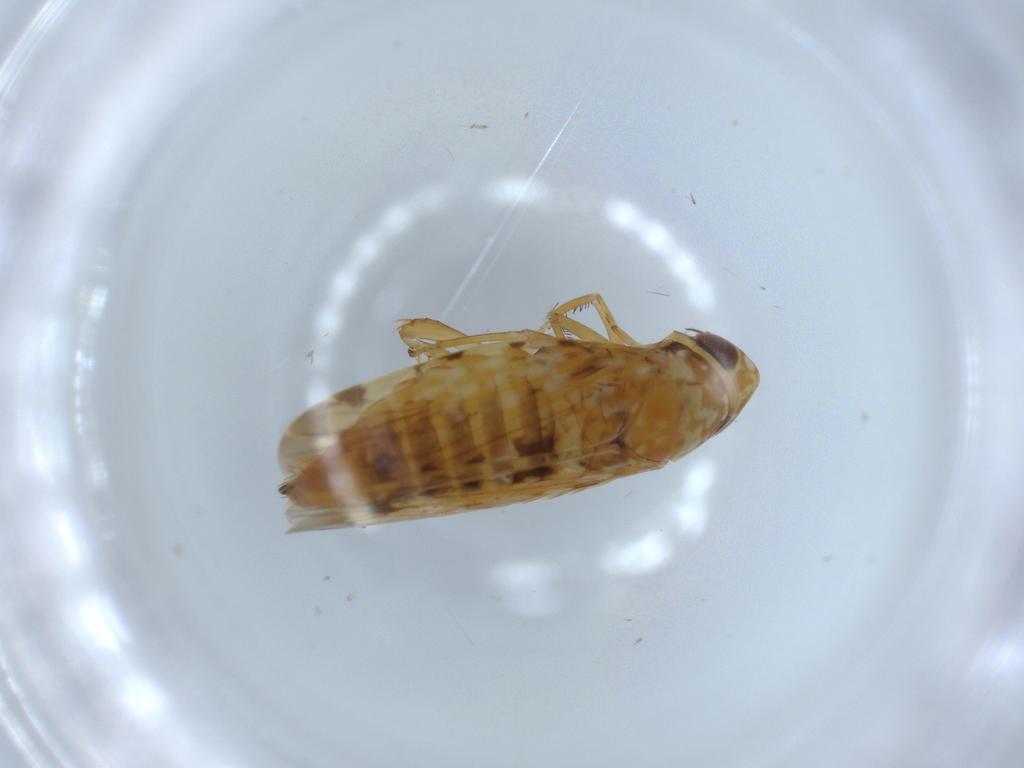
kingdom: Animalia
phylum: Arthropoda
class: Insecta
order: Hemiptera
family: Cicadellidae
